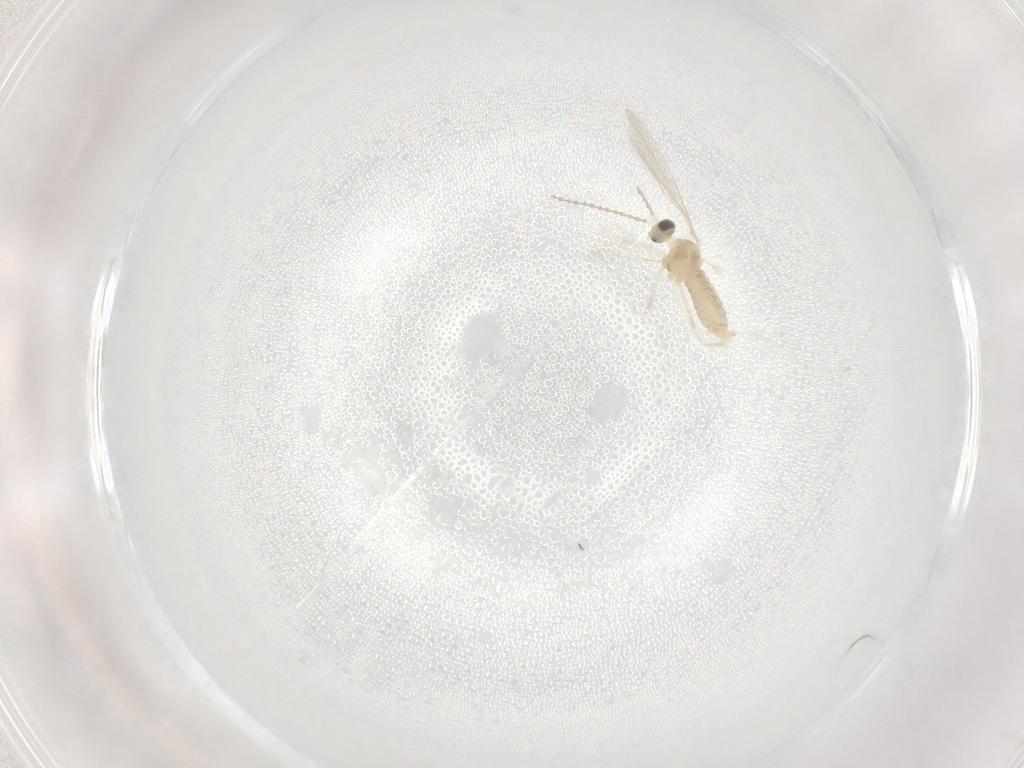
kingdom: Animalia
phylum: Arthropoda
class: Insecta
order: Diptera
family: Cecidomyiidae
